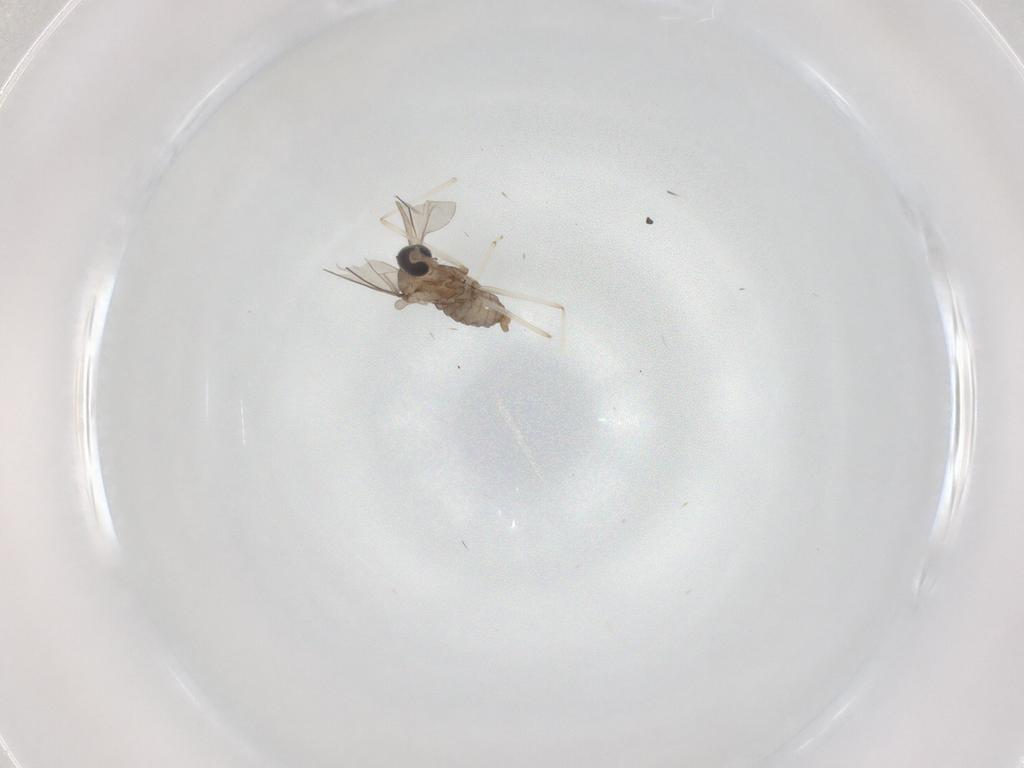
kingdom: Animalia
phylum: Arthropoda
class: Insecta
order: Diptera
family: Cecidomyiidae
